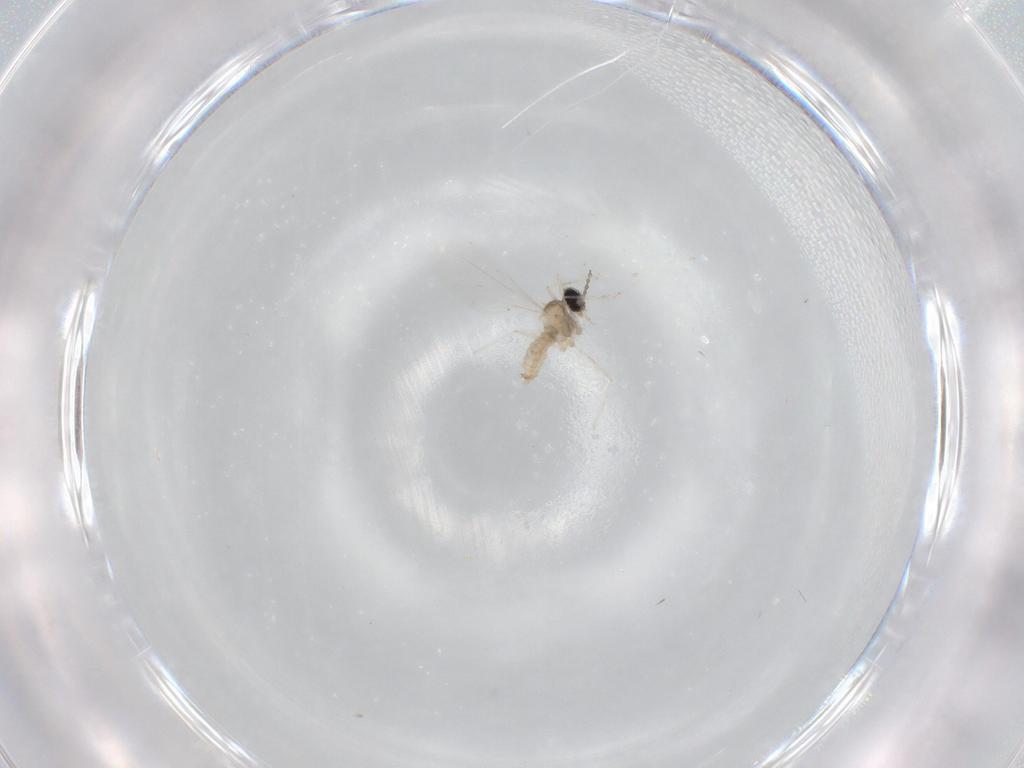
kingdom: Animalia
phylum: Arthropoda
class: Insecta
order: Diptera
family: Cecidomyiidae
